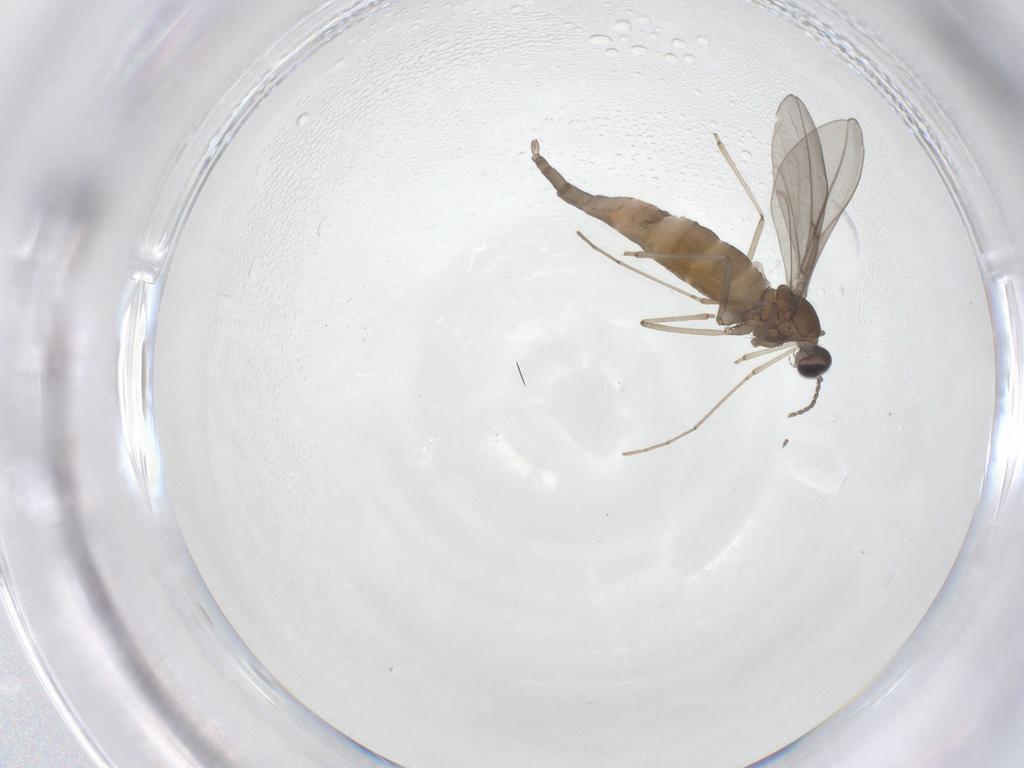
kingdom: Animalia
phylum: Arthropoda
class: Insecta
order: Diptera
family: Cecidomyiidae
